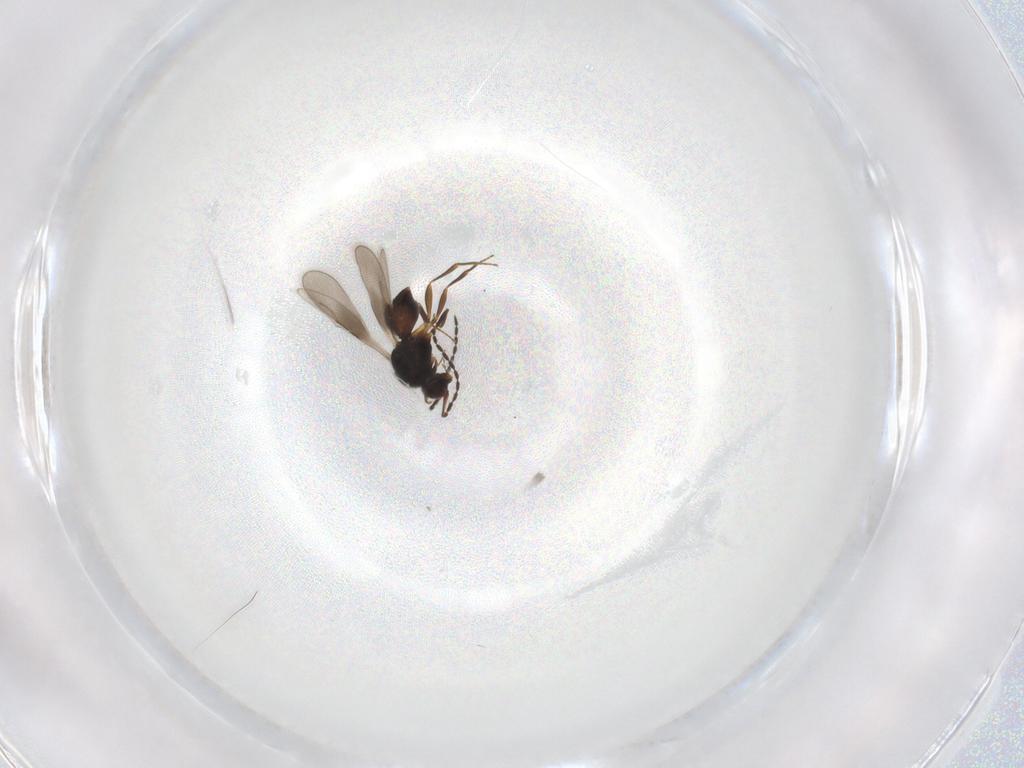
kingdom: Animalia
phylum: Arthropoda
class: Insecta
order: Hymenoptera
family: Ceraphronidae
